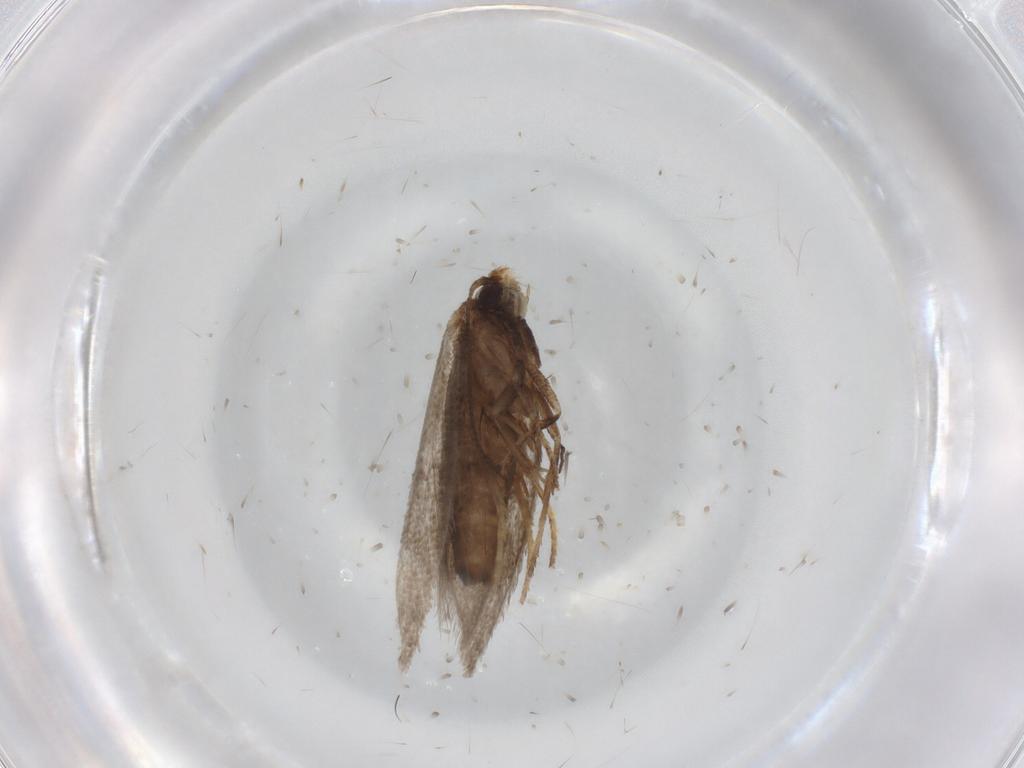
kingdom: Animalia
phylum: Arthropoda
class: Insecta
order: Lepidoptera
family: Nepticulidae
